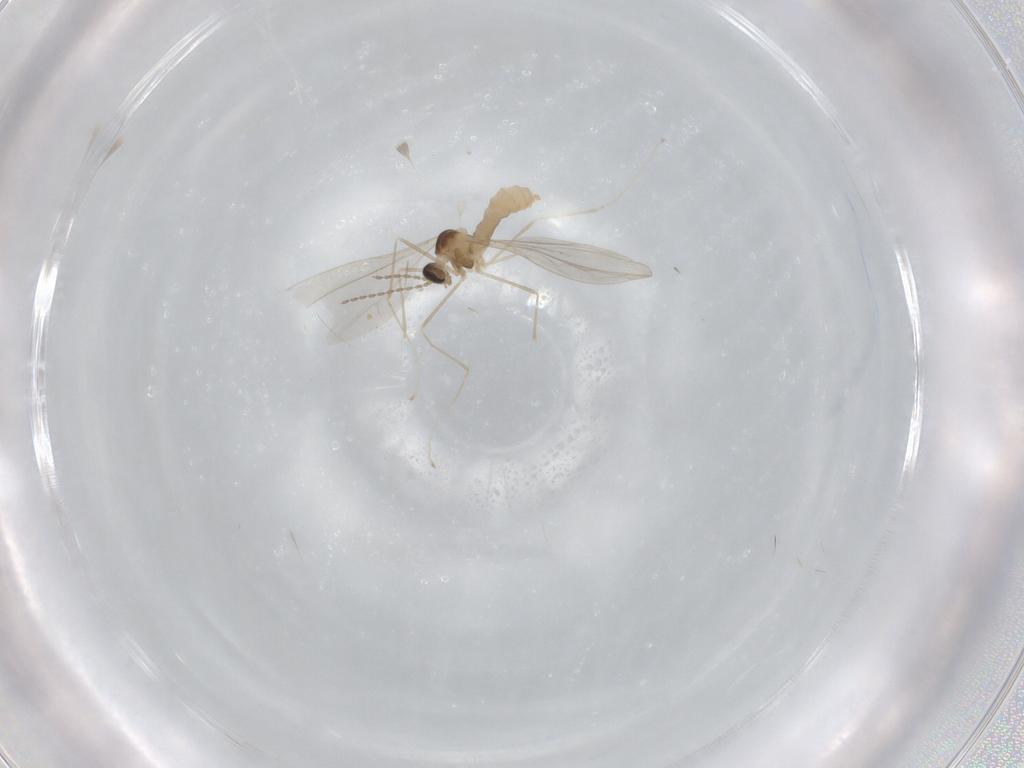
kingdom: Animalia
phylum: Arthropoda
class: Insecta
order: Diptera
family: Cecidomyiidae
